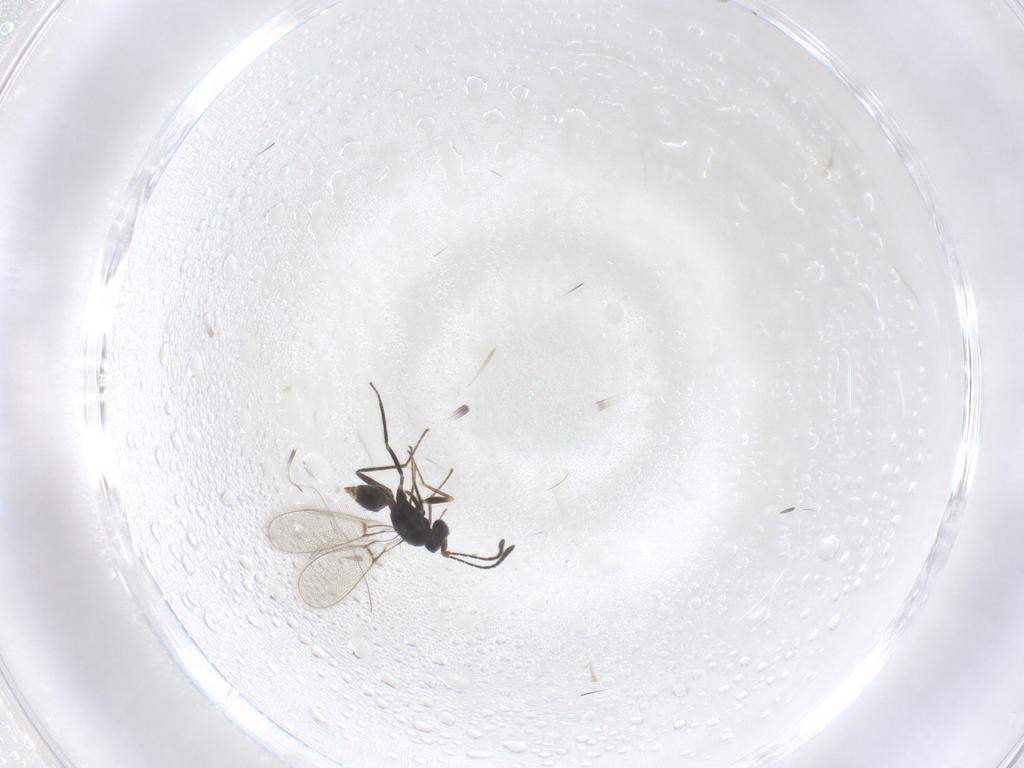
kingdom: Animalia
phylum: Arthropoda
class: Insecta
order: Hymenoptera
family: Mymaridae
